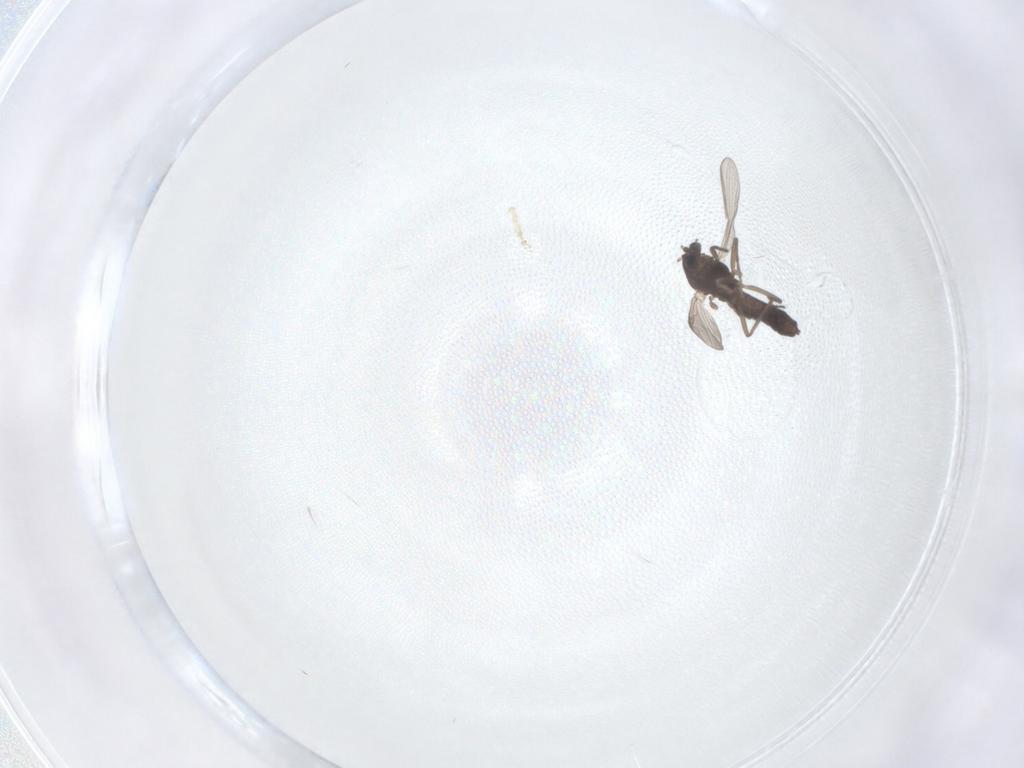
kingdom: Animalia
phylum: Arthropoda
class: Insecta
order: Diptera
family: Chironomidae
